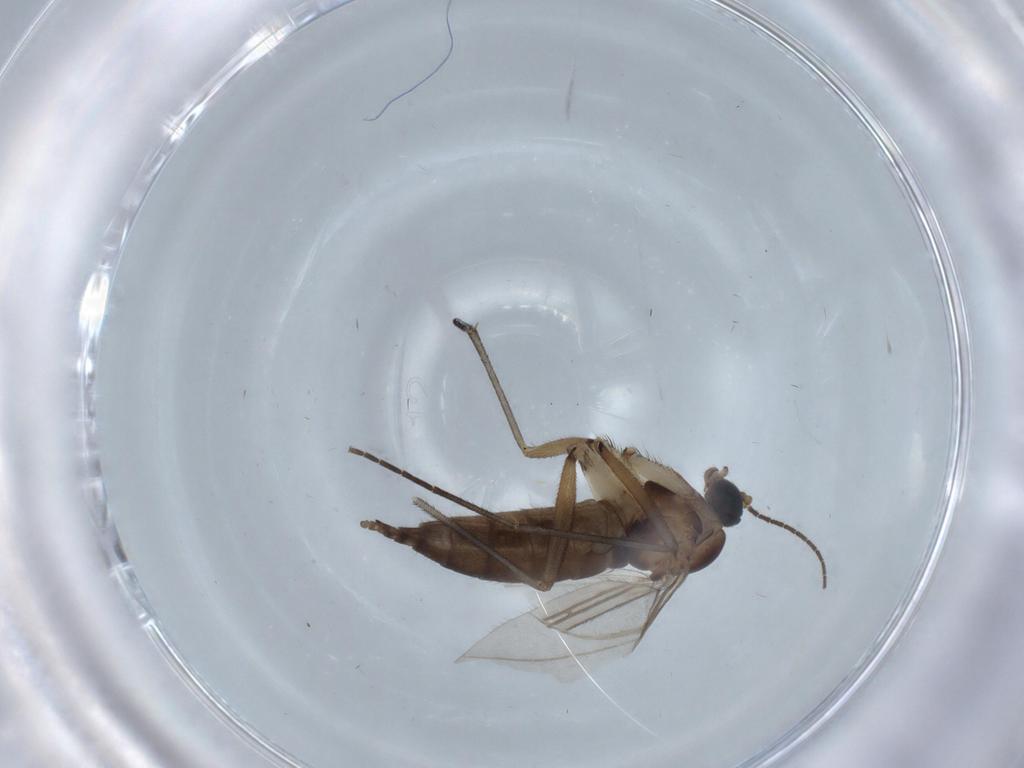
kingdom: Animalia
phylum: Arthropoda
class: Insecta
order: Diptera
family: Sciaridae
